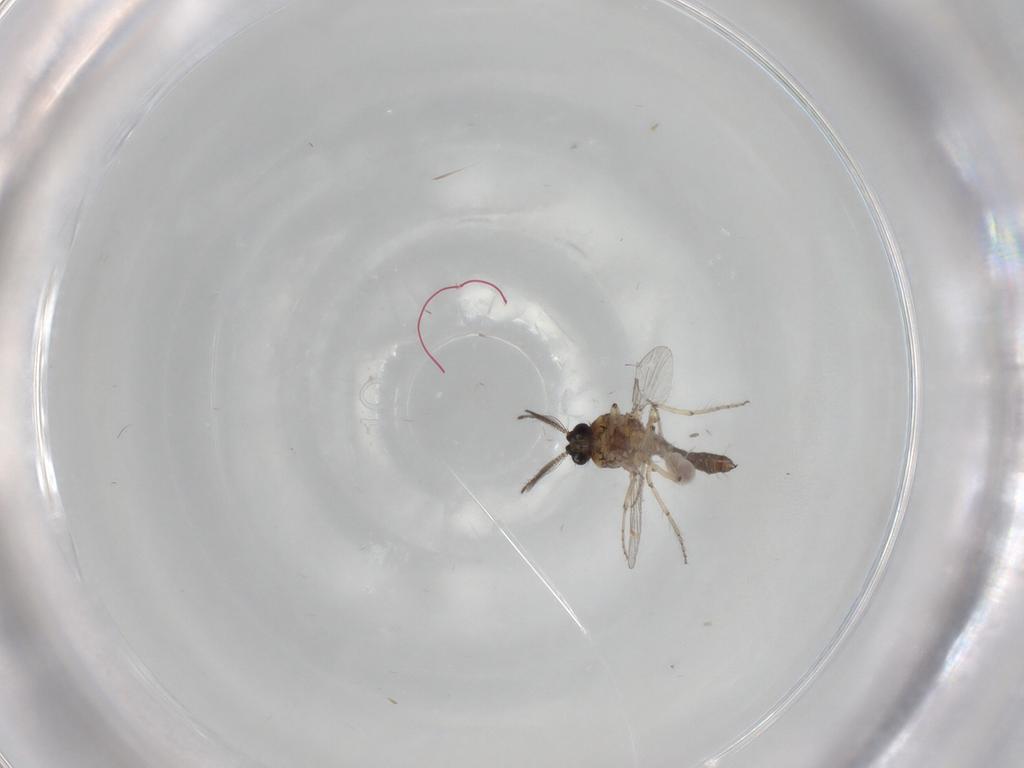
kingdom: Animalia
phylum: Arthropoda
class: Insecta
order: Diptera
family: Ceratopogonidae
